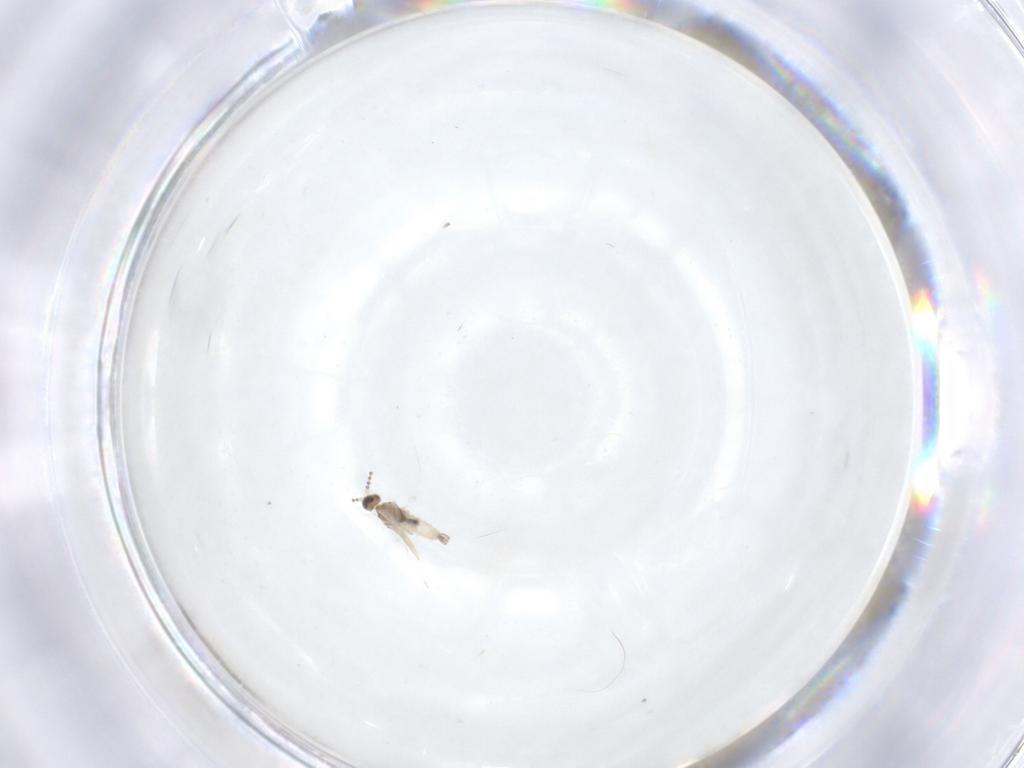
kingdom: Animalia
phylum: Arthropoda
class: Insecta
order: Diptera
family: Cecidomyiidae
